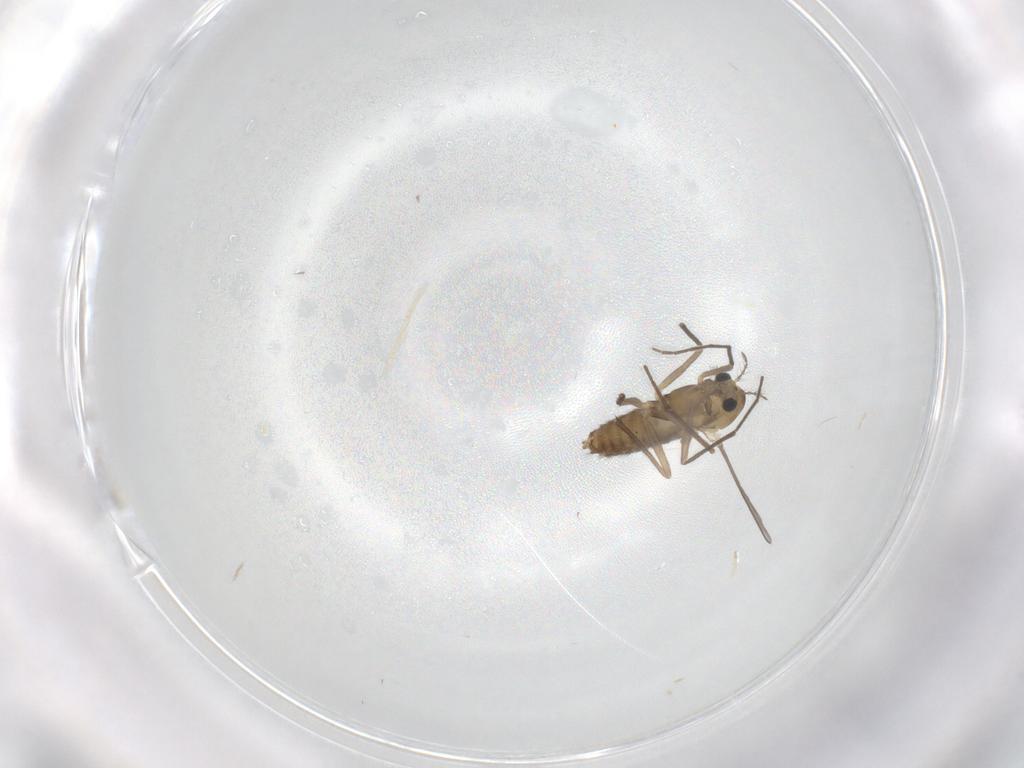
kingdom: Animalia
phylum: Arthropoda
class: Insecta
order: Diptera
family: Chironomidae
